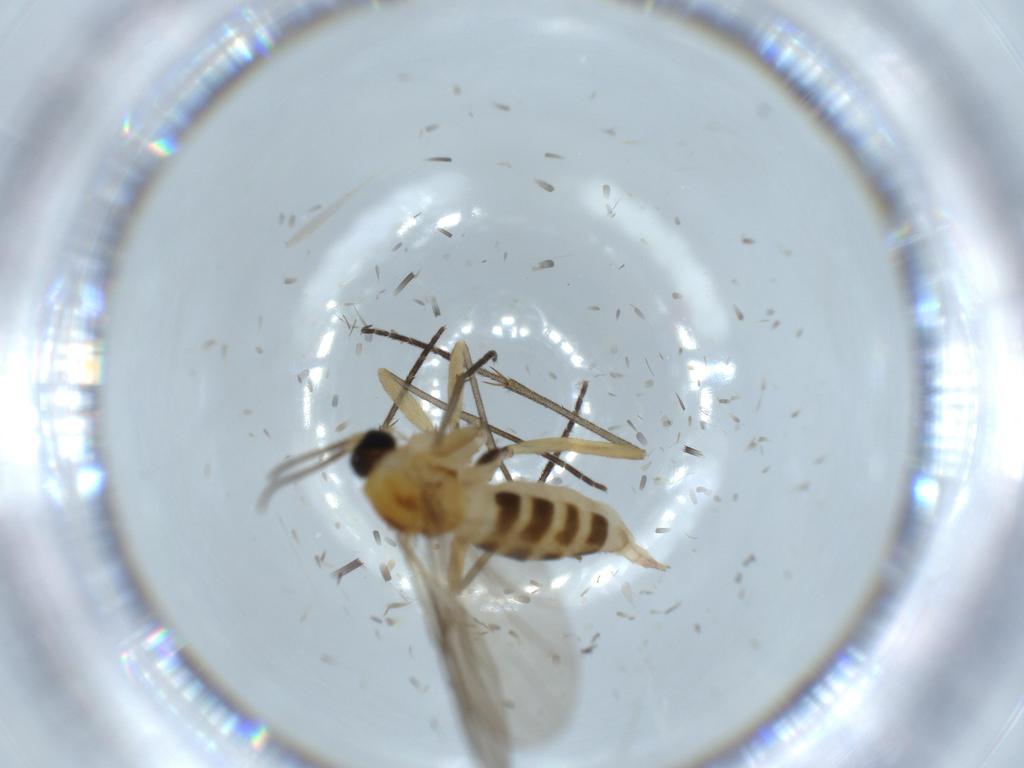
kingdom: Animalia
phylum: Arthropoda
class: Insecta
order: Diptera
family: Sciaridae
